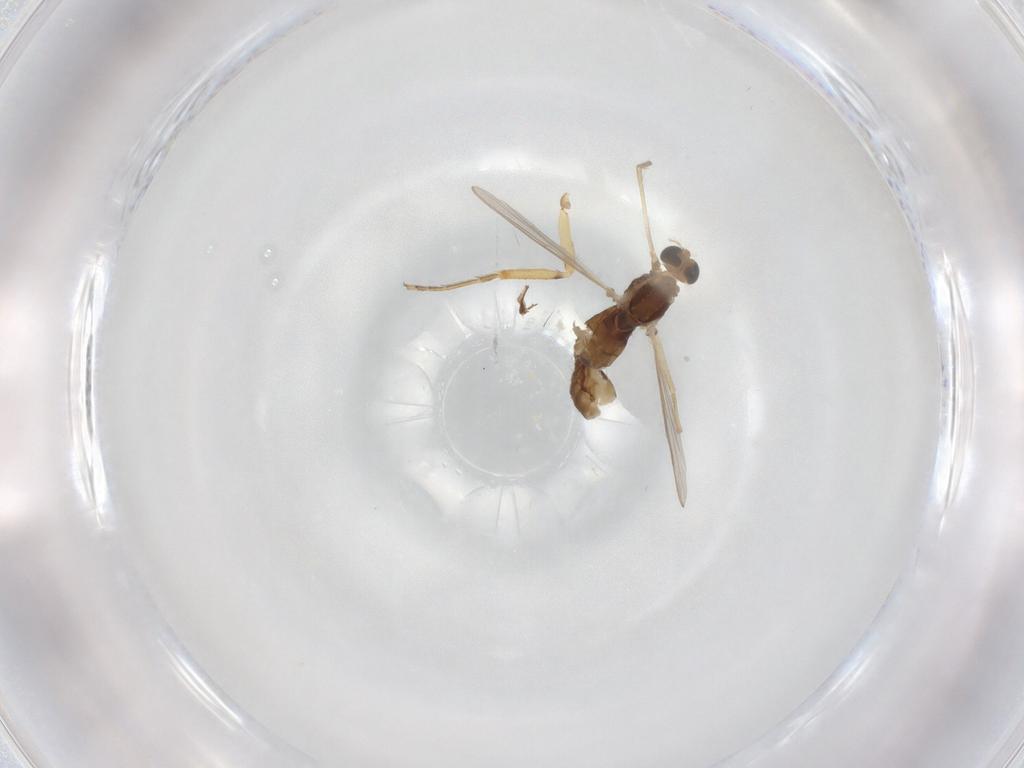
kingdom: Animalia
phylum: Arthropoda
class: Insecta
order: Diptera
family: Chironomidae
